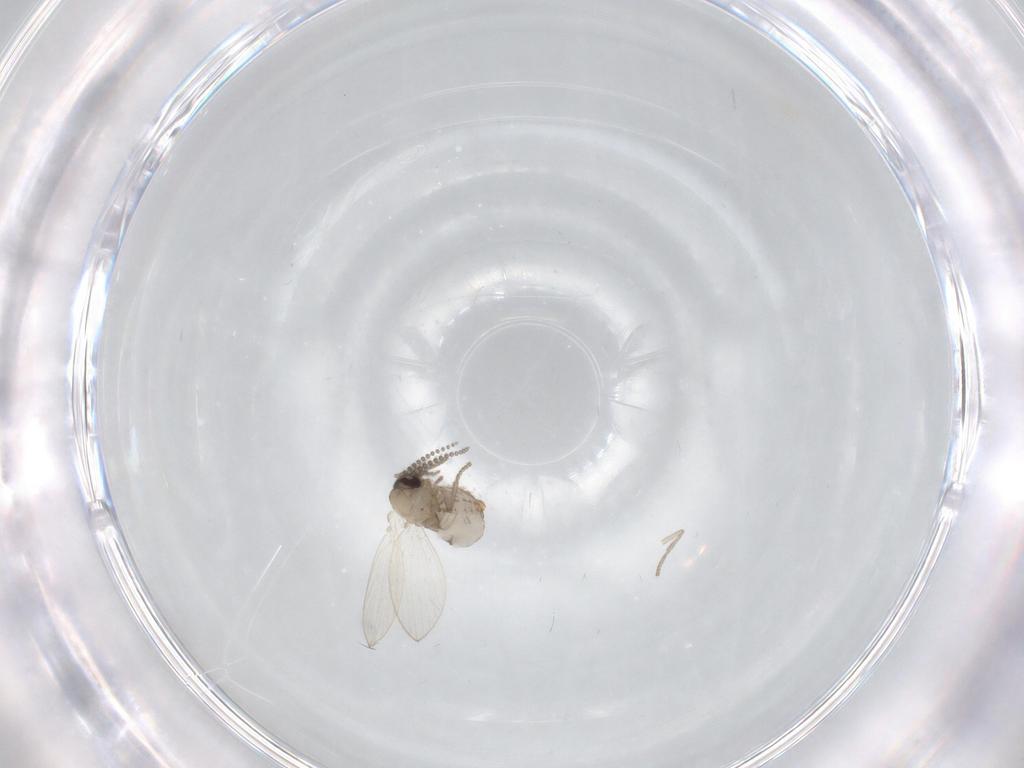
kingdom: Animalia
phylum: Arthropoda
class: Insecta
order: Diptera
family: Psychodidae
